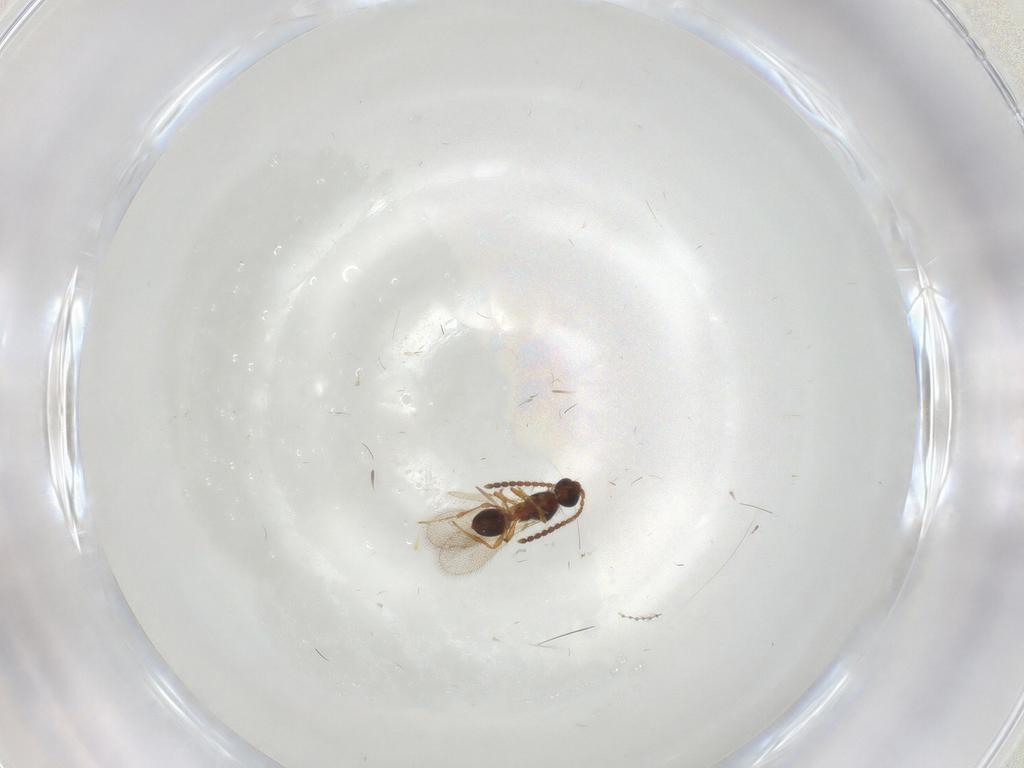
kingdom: Animalia
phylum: Arthropoda
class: Insecta
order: Hymenoptera
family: Diapriidae
